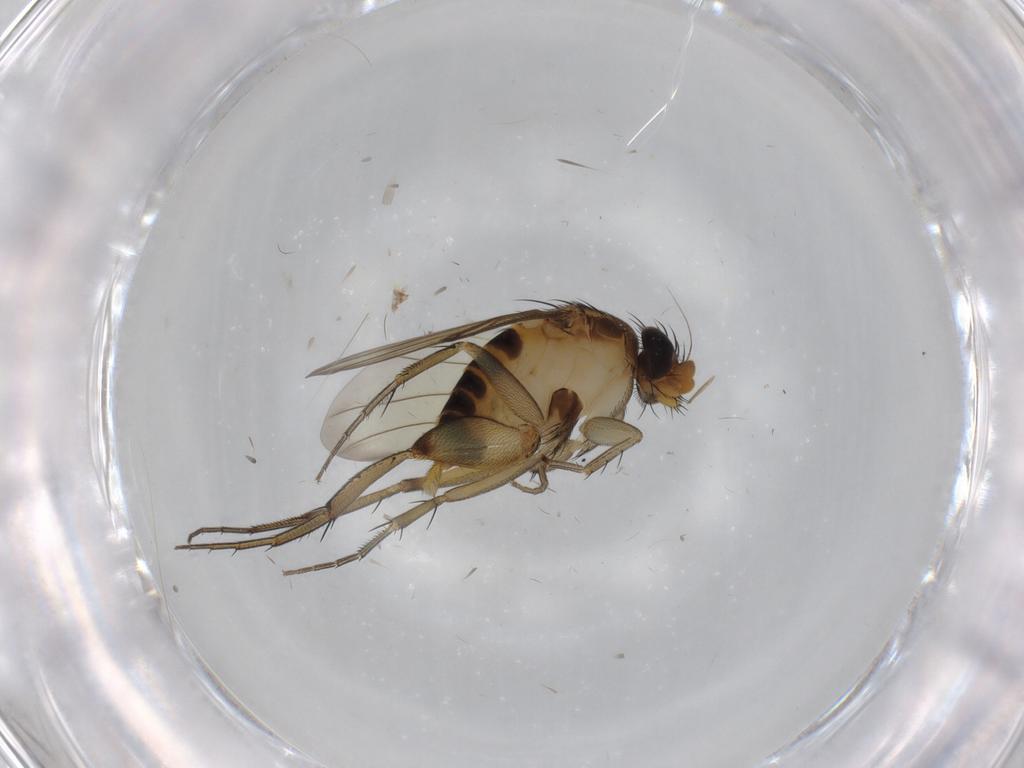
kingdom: Animalia
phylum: Arthropoda
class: Insecta
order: Diptera
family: Phoridae
